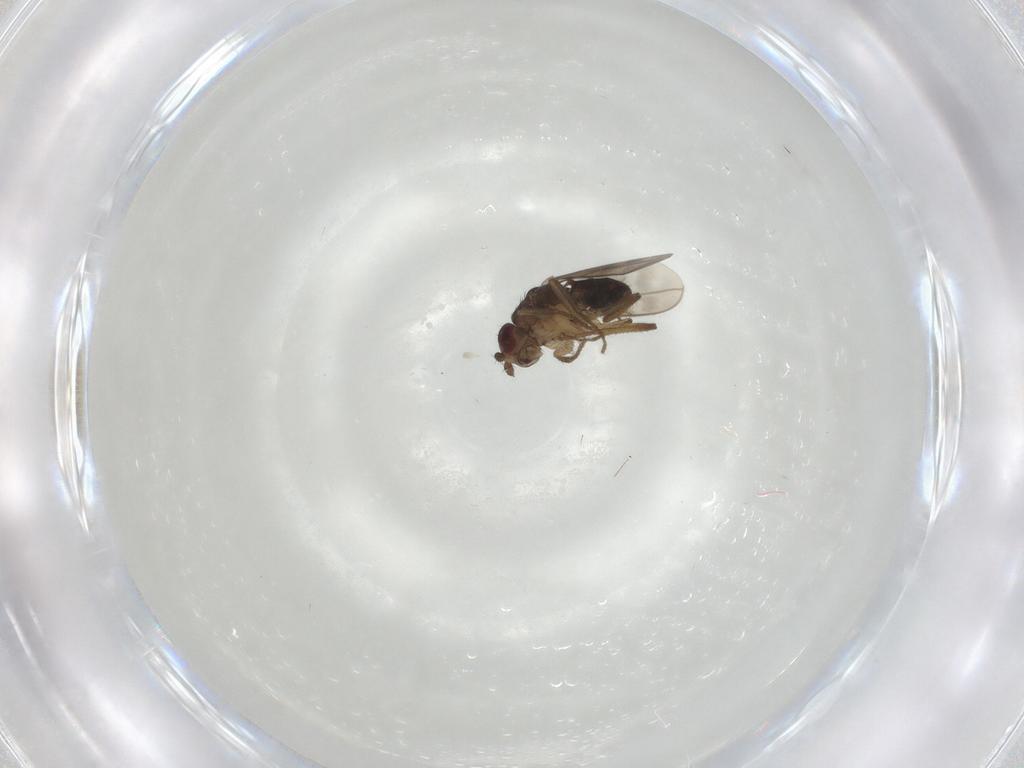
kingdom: Animalia
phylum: Arthropoda
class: Insecta
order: Diptera
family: Sphaeroceridae
